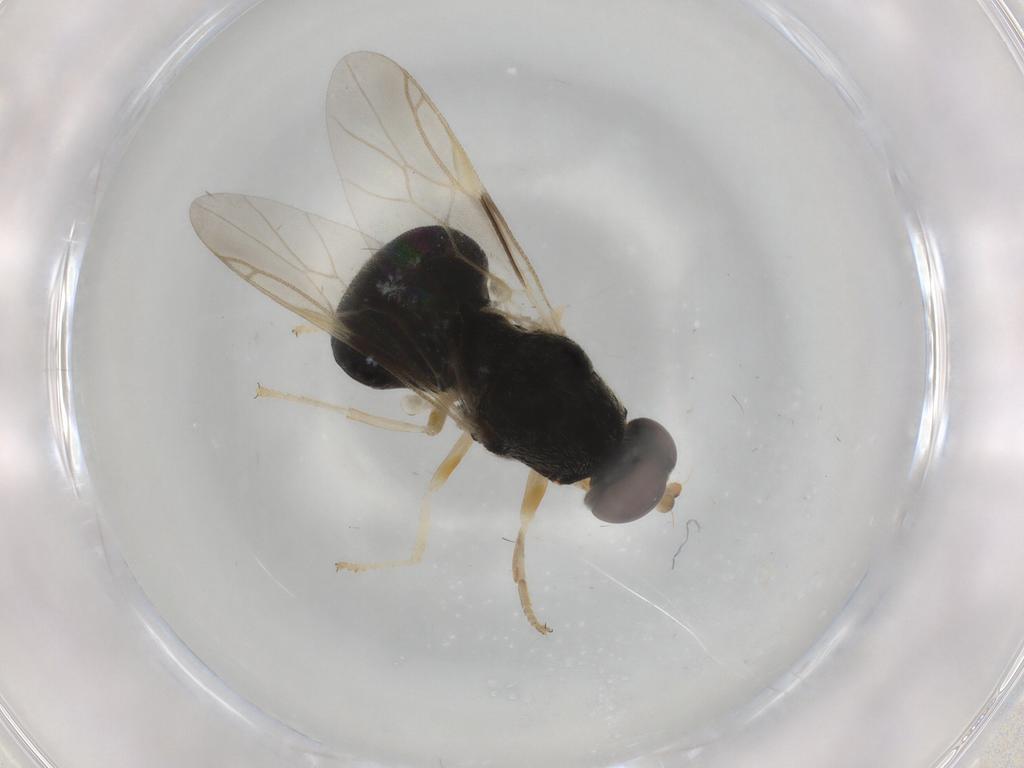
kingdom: Animalia
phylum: Arthropoda
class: Insecta
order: Diptera
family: Stratiomyidae
